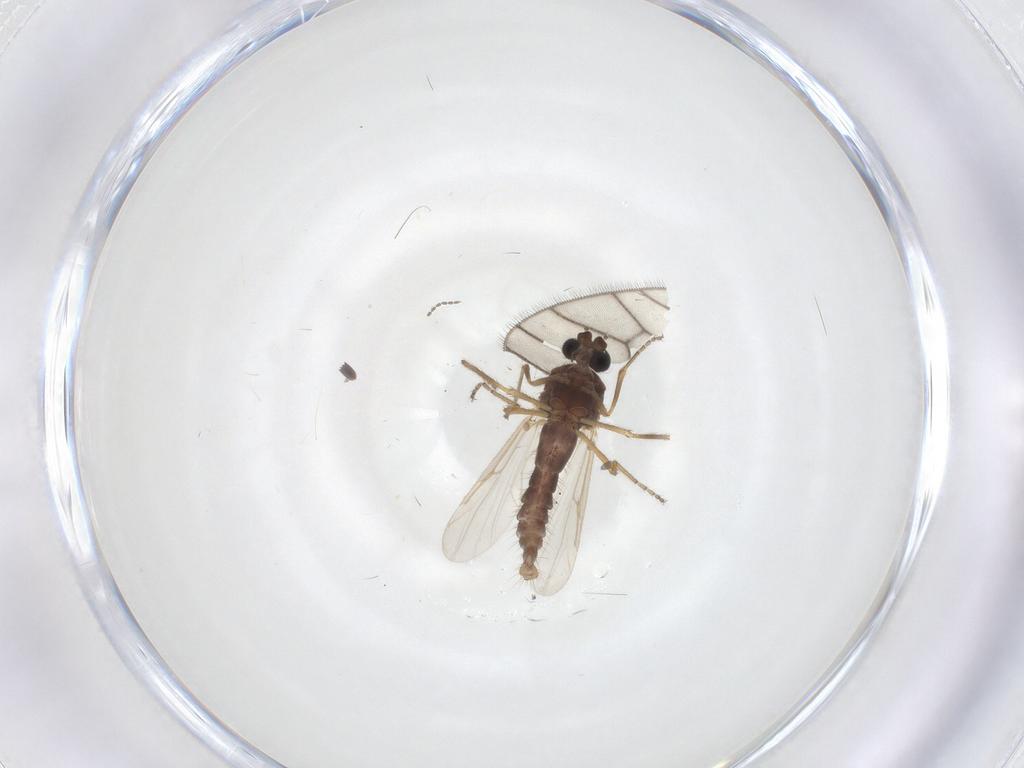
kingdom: Animalia
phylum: Arthropoda
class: Insecta
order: Diptera
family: Ceratopogonidae
